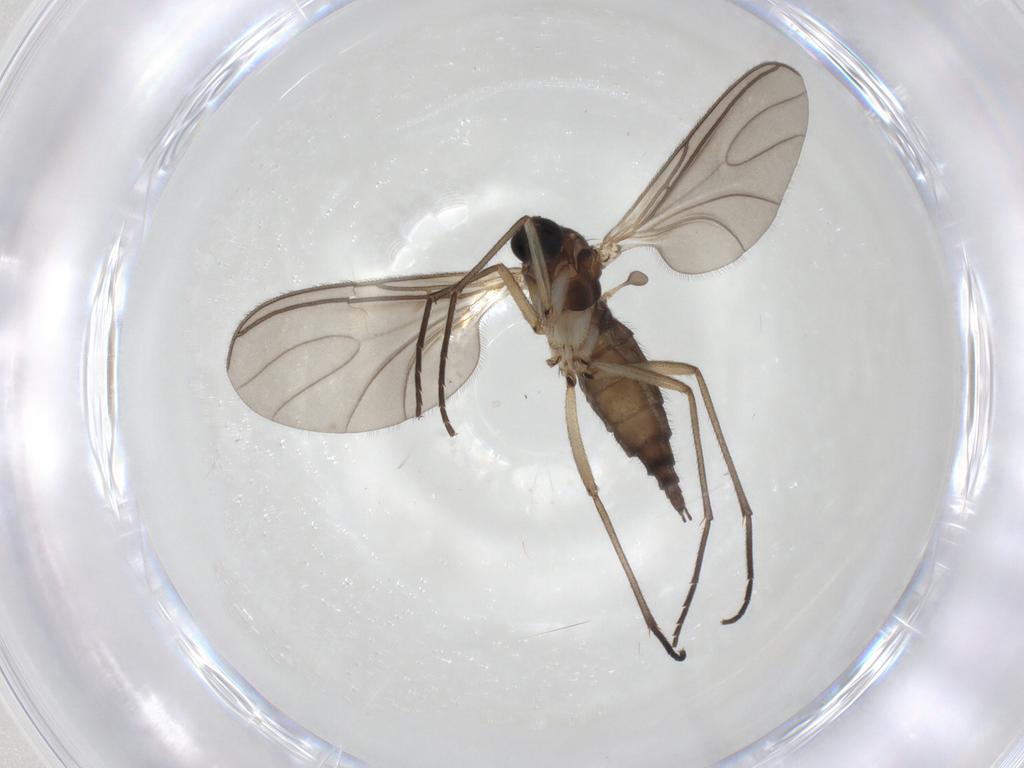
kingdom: Animalia
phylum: Arthropoda
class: Insecta
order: Diptera
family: Sciaridae
